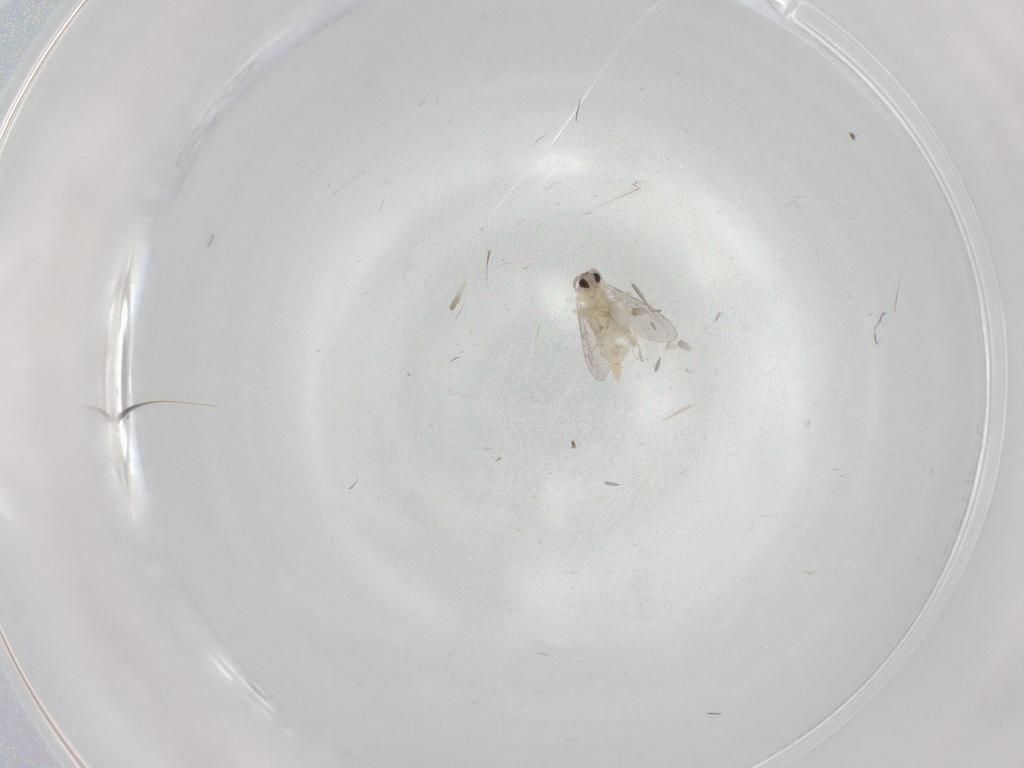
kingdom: Animalia
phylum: Arthropoda
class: Insecta
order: Diptera
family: Cecidomyiidae
